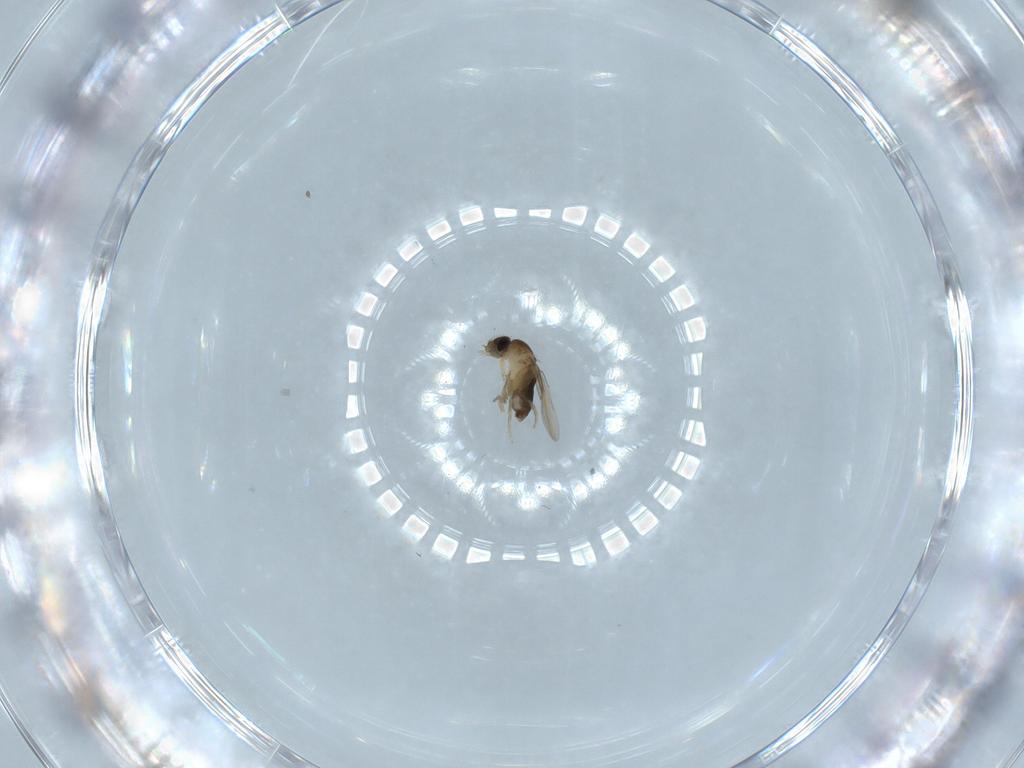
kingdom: Animalia
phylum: Arthropoda
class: Insecta
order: Diptera
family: Phoridae
